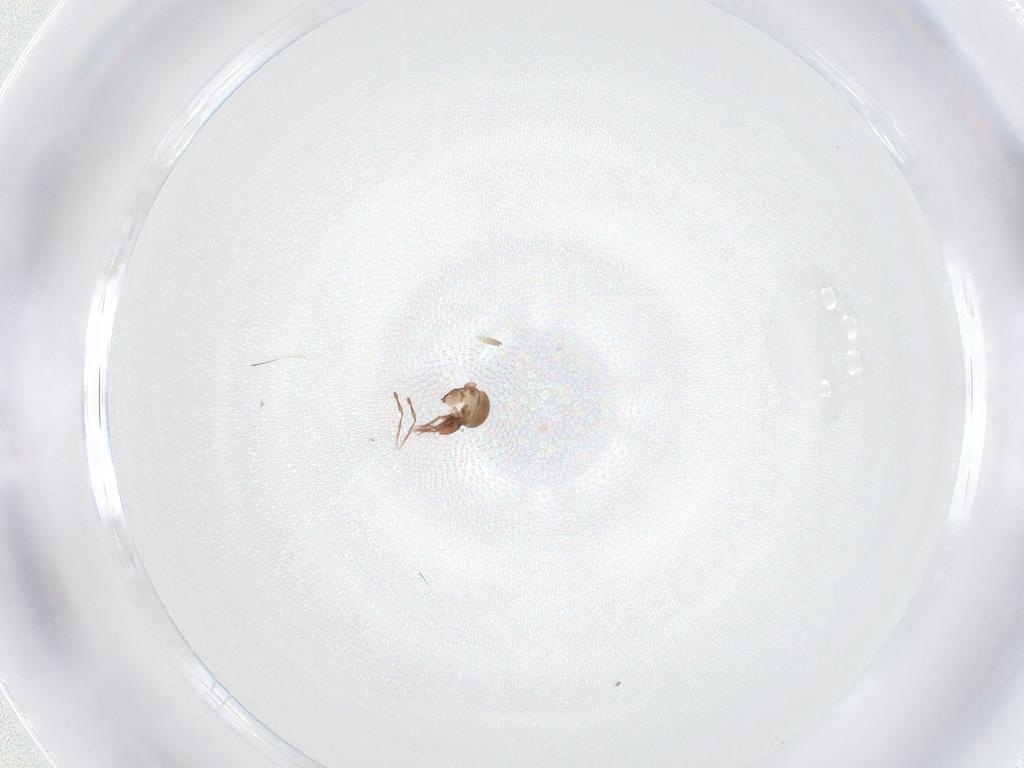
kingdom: Animalia
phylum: Arthropoda
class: Arachnida
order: Sarcoptiformes
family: Oppiidae
